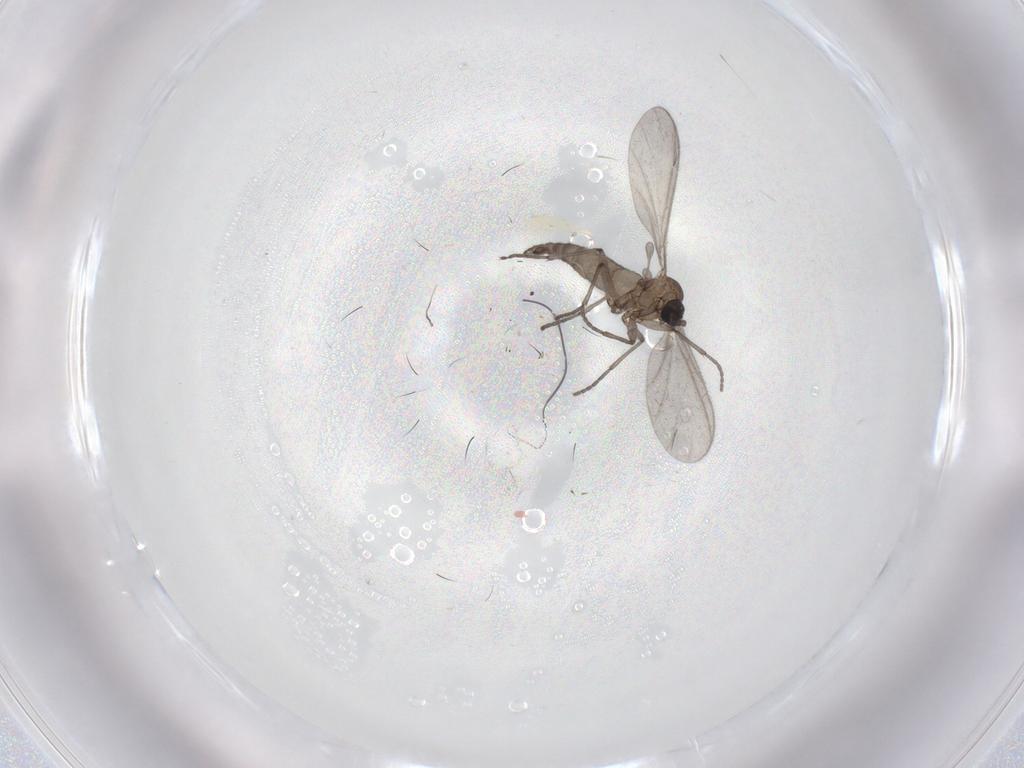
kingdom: Animalia
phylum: Arthropoda
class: Insecta
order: Diptera
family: Sciaridae
